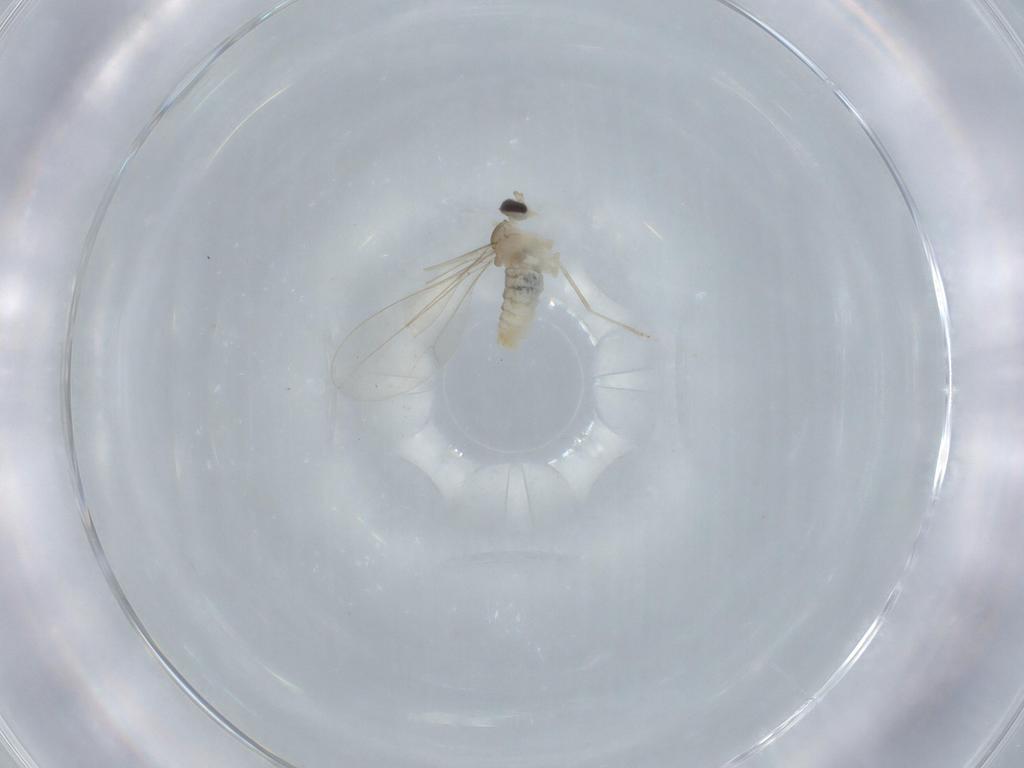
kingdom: Animalia
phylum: Arthropoda
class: Insecta
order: Diptera
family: Cecidomyiidae
